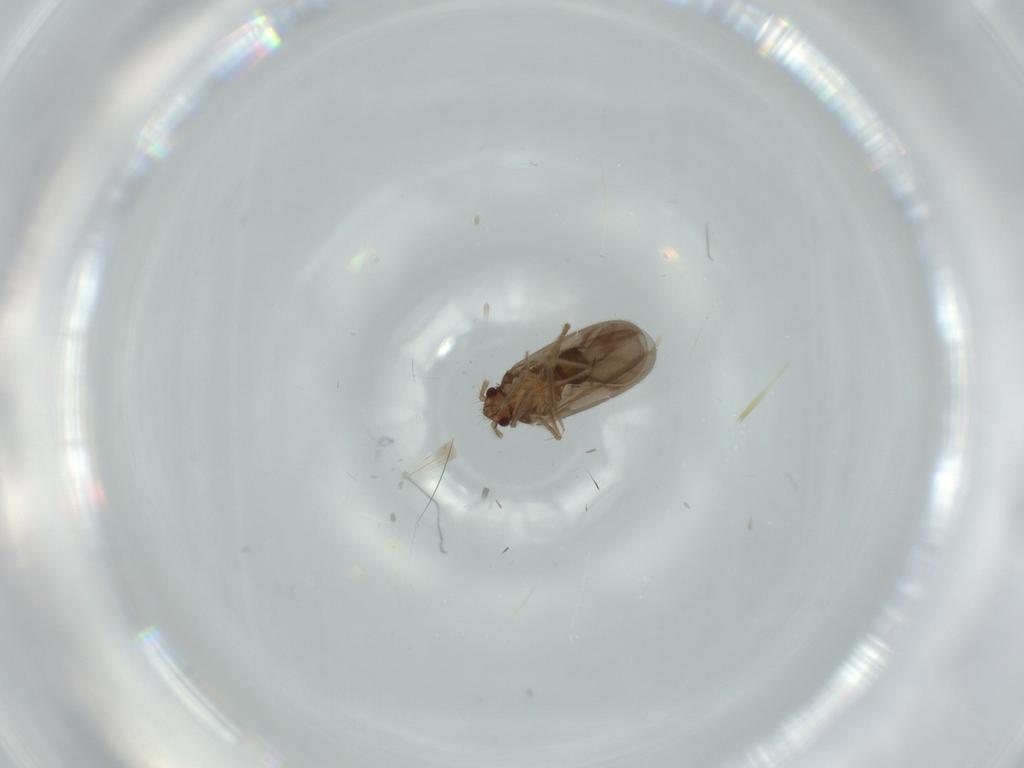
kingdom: Animalia
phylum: Arthropoda
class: Insecta
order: Hemiptera
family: Ceratocombidae
